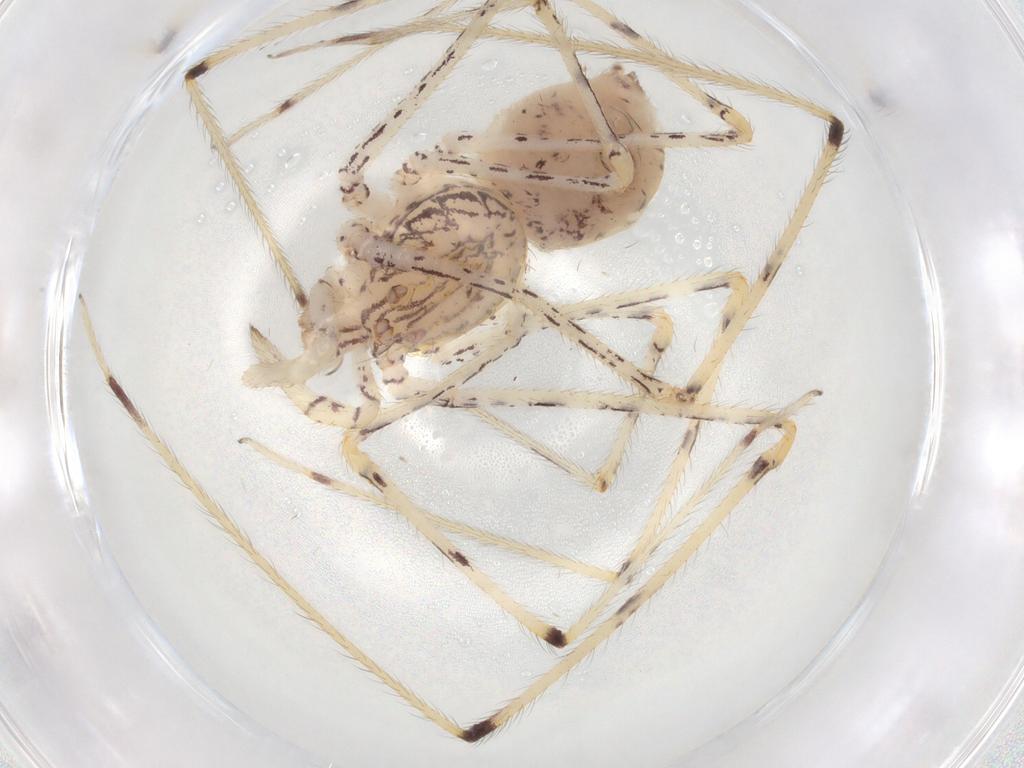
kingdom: Animalia
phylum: Arthropoda
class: Arachnida
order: Araneae
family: Scytodidae
